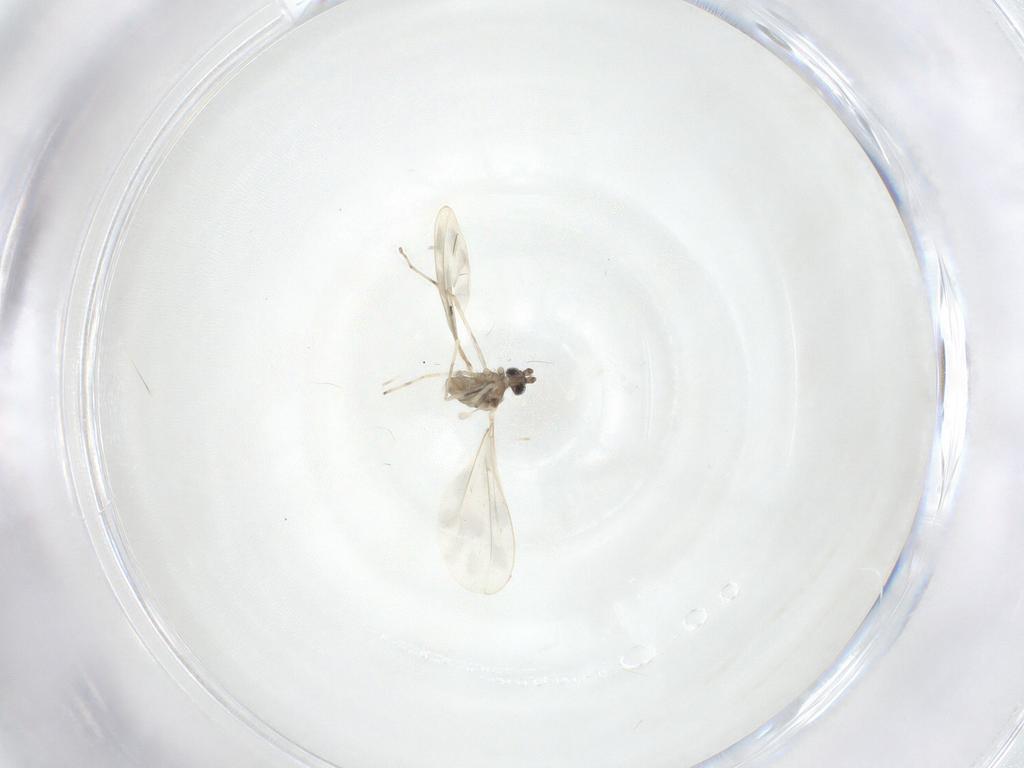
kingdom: Animalia
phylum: Arthropoda
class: Insecta
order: Diptera
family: Cecidomyiidae
